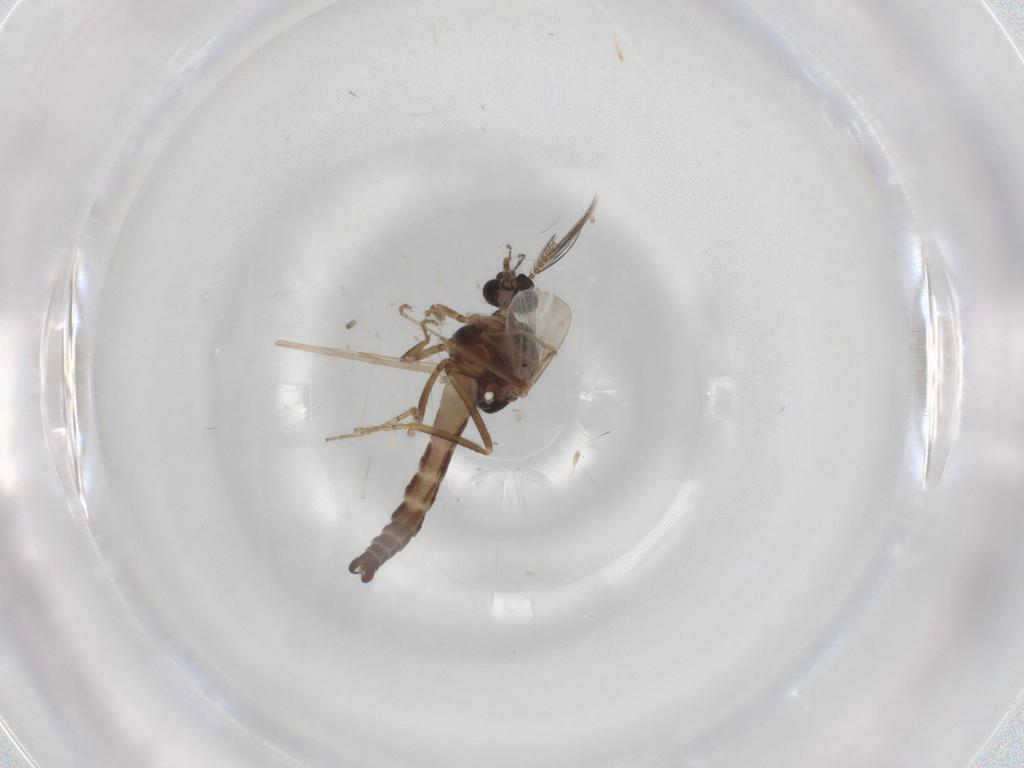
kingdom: Animalia
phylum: Arthropoda
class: Insecta
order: Diptera
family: Ceratopogonidae
